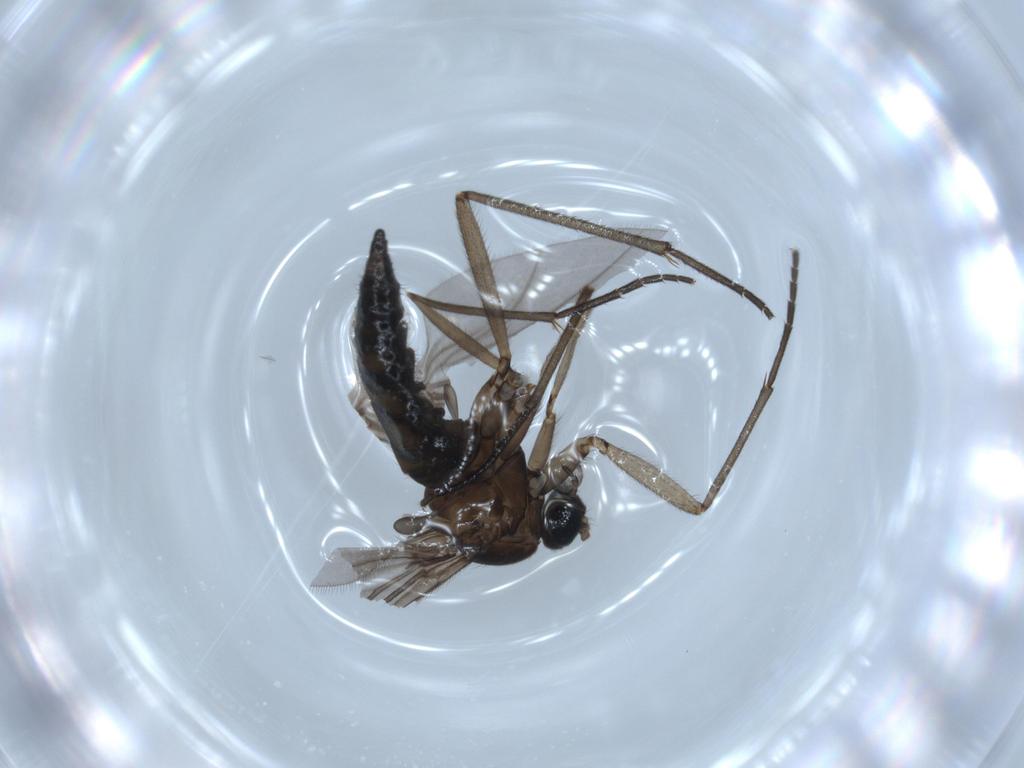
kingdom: Animalia
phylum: Arthropoda
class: Insecta
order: Diptera
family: Sciaridae
